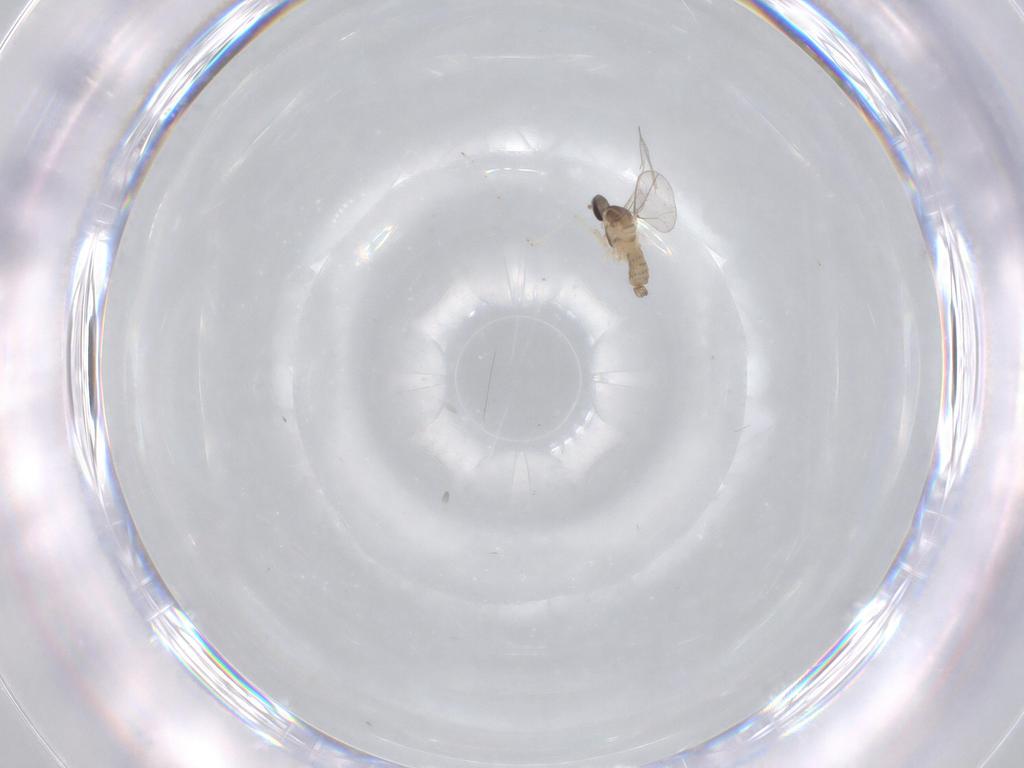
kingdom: Animalia
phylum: Arthropoda
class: Insecta
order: Diptera
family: Cecidomyiidae
